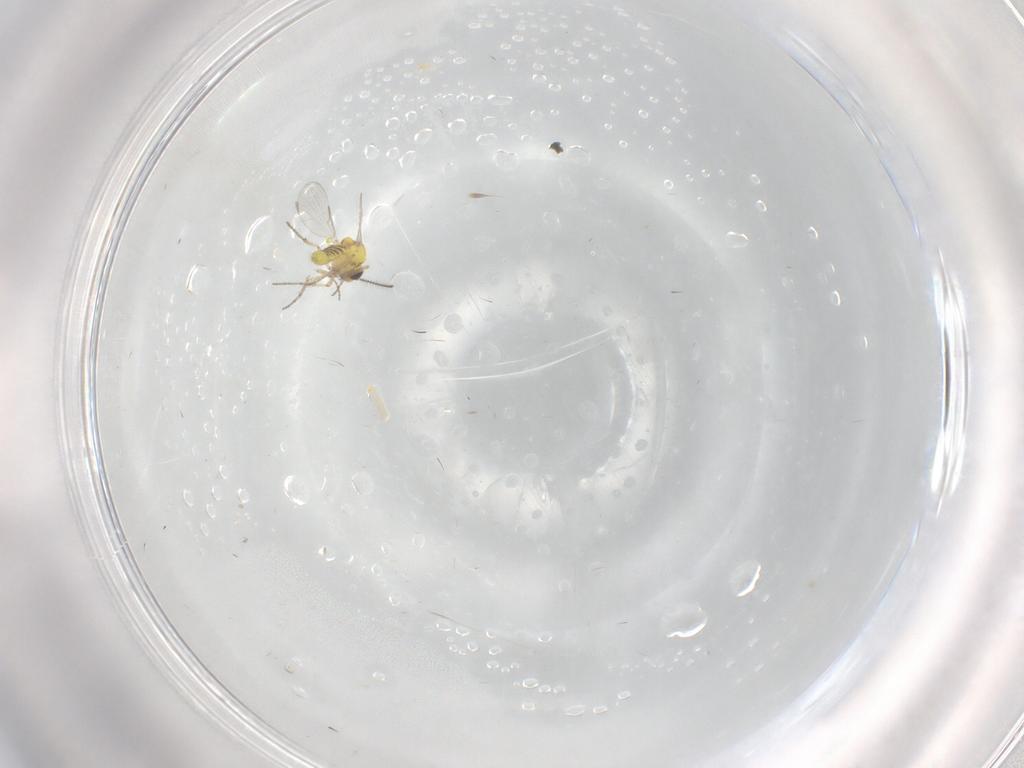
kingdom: Animalia
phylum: Arthropoda
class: Insecta
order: Diptera
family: Ceratopogonidae
